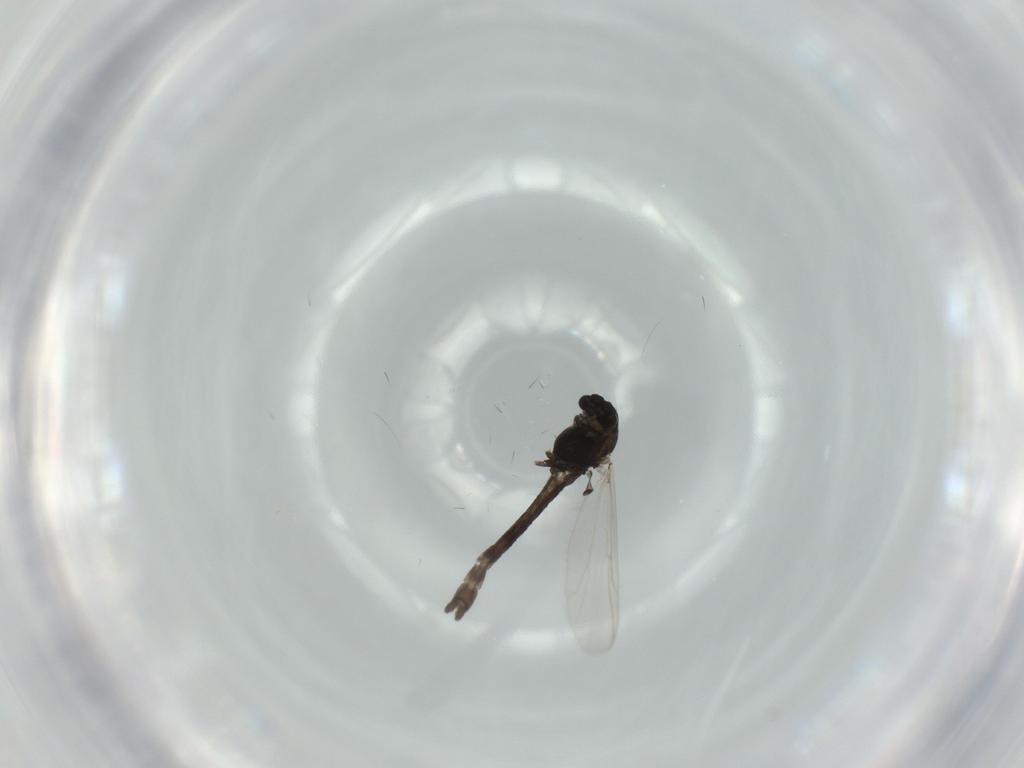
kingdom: Animalia
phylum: Arthropoda
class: Insecta
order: Diptera
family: Chironomidae
